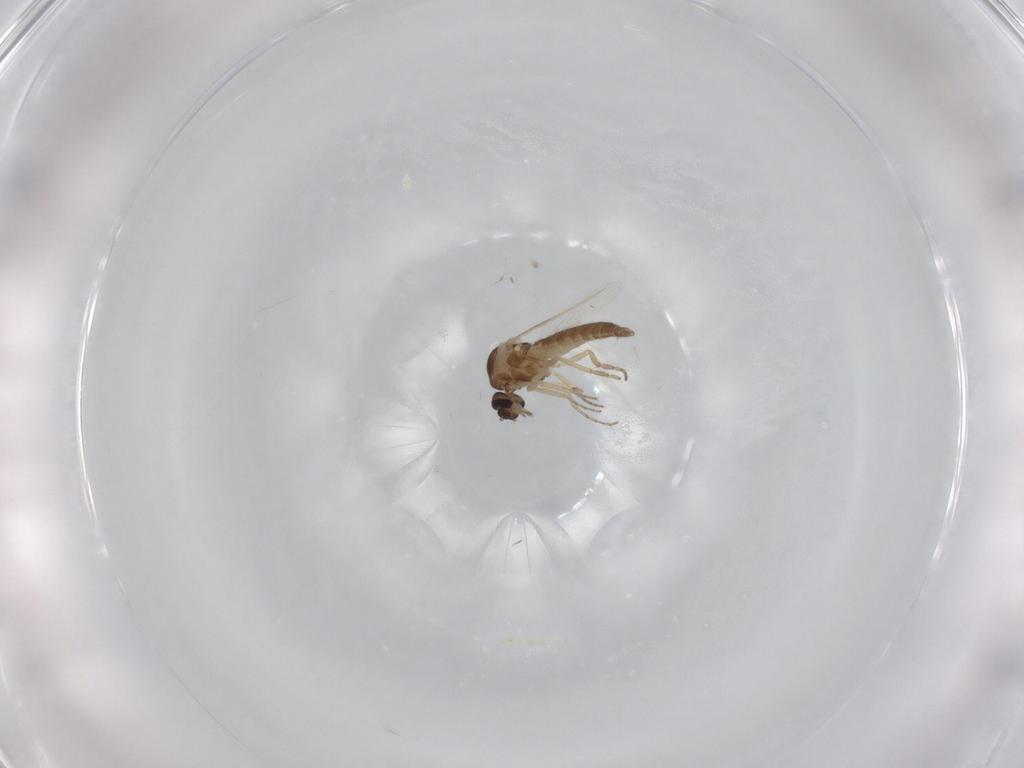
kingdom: Animalia
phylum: Arthropoda
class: Insecta
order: Diptera
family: Ceratopogonidae
